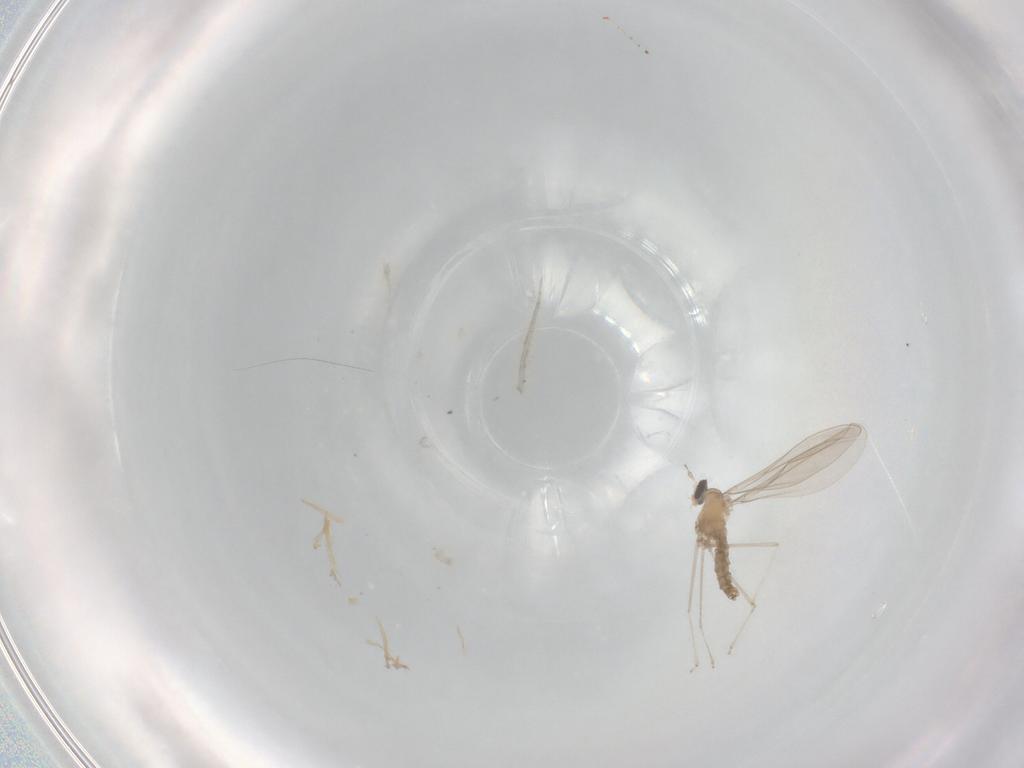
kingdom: Animalia
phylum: Arthropoda
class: Insecta
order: Diptera
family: Cecidomyiidae
